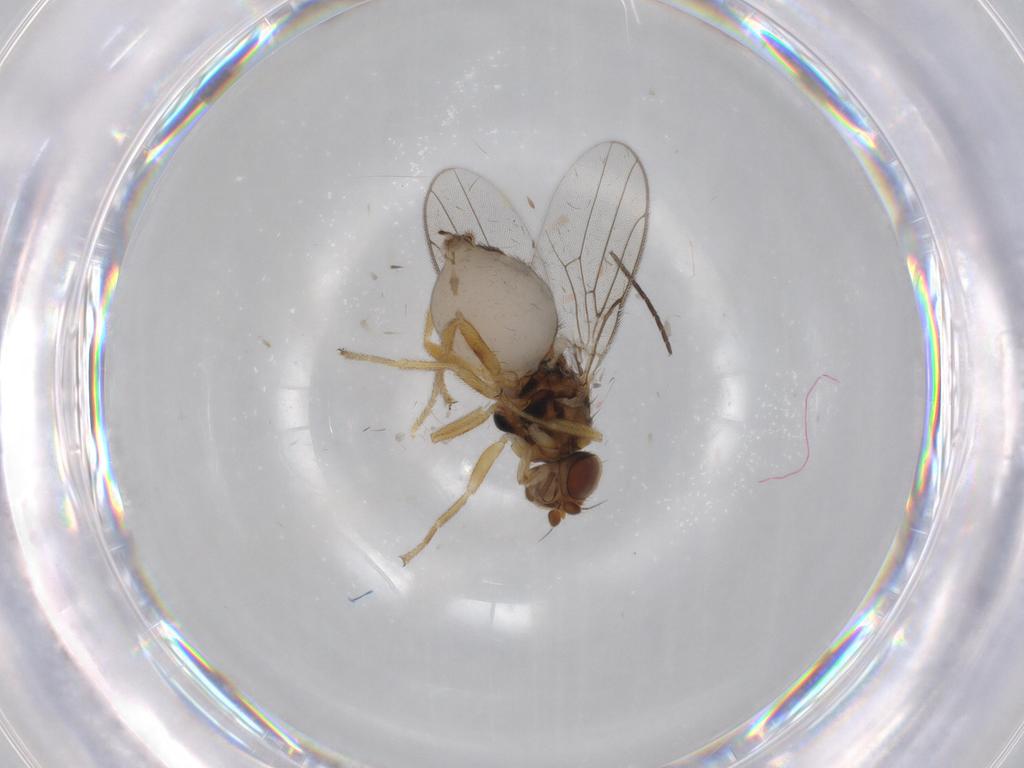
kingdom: Animalia
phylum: Arthropoda
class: Insecta
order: Diptera
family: Chloropidae
